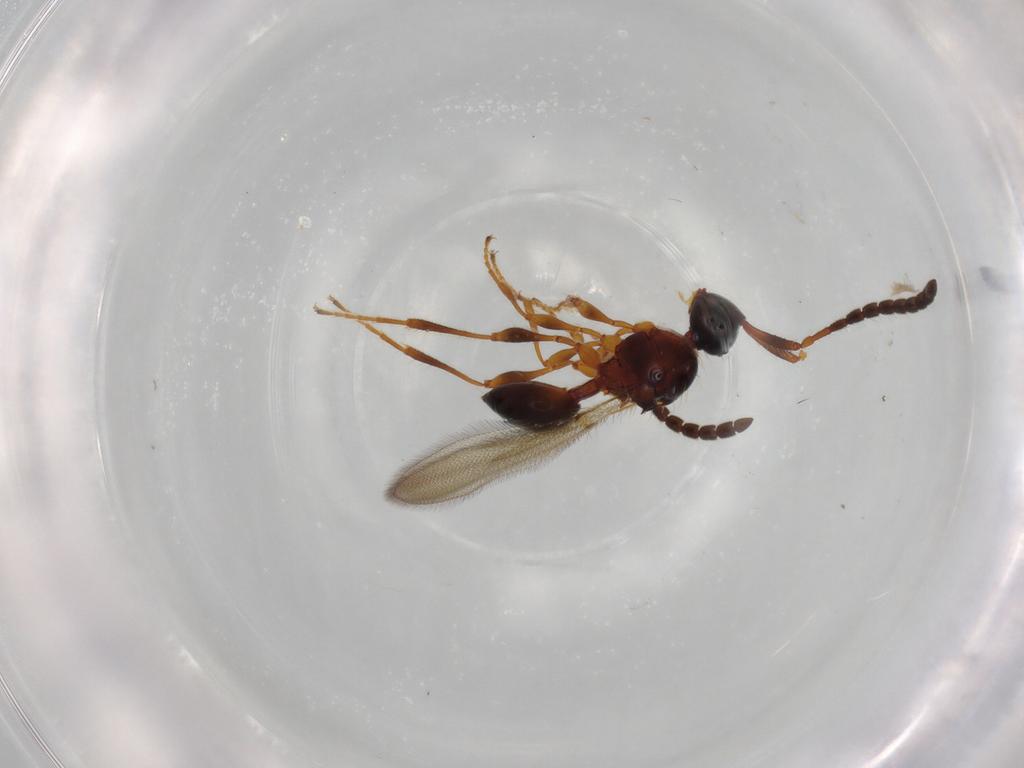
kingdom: Animalia
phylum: Arthropoda
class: Insecta
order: Hymenoptera
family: Diapriidae
